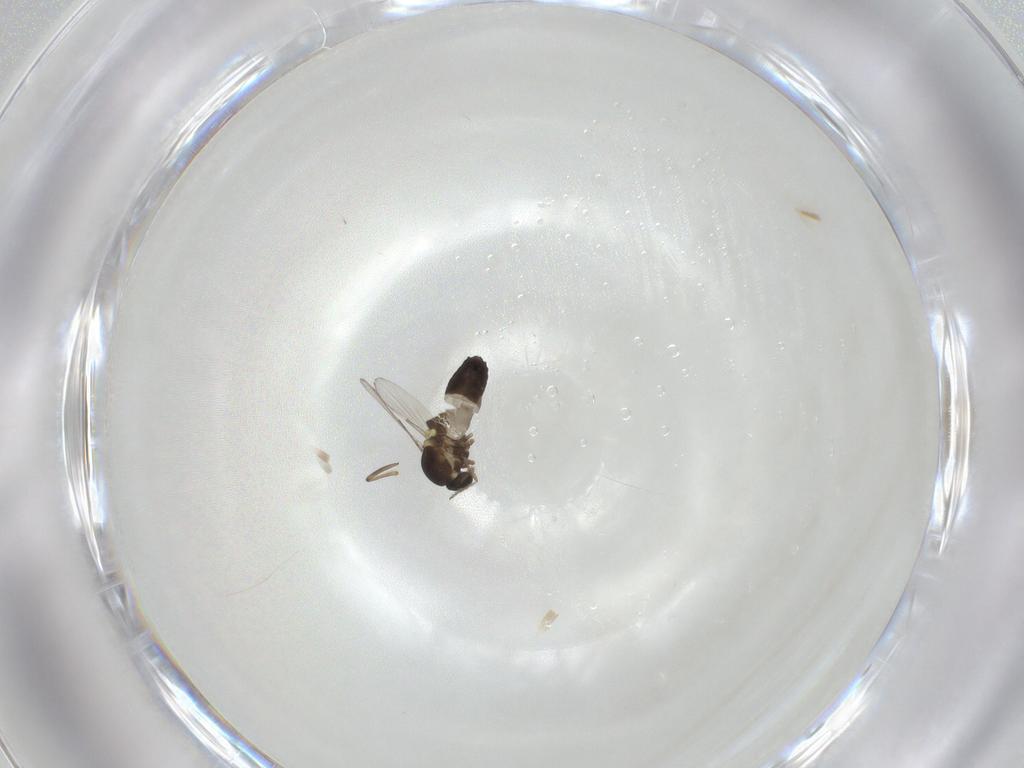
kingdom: Animalia
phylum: Arthropoda
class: Insecta
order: Diptera
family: Ceratopogonidae
